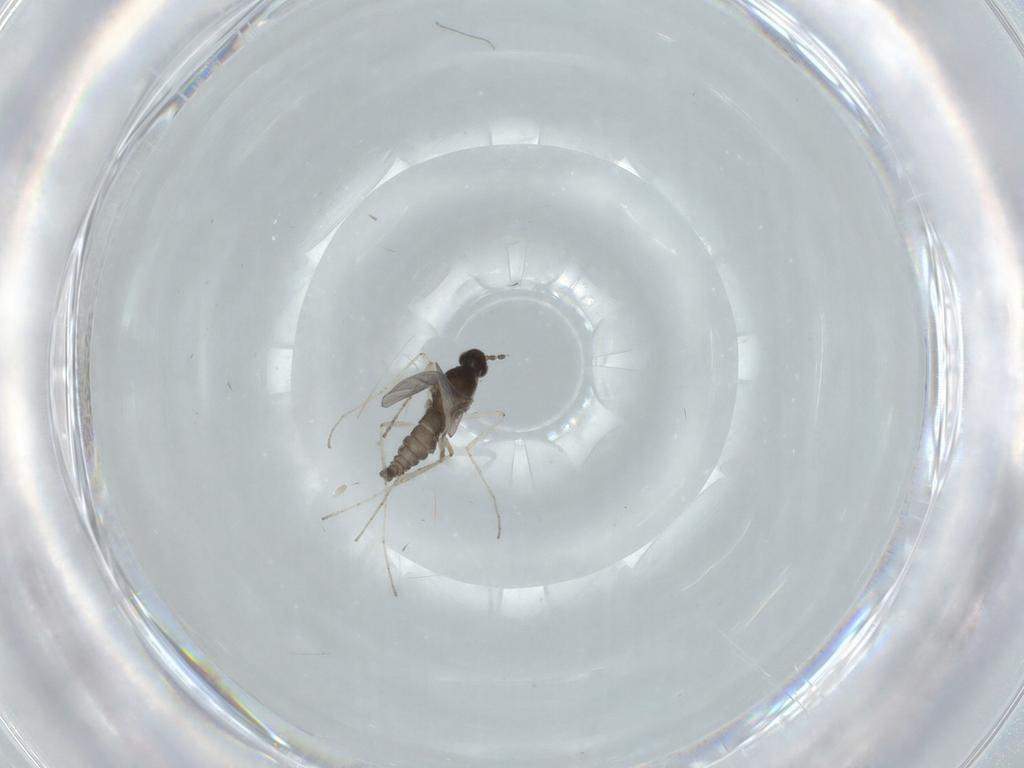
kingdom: Animalia
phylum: Arthropoda
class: Insecta
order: Diptera
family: Cecidomyiidae
